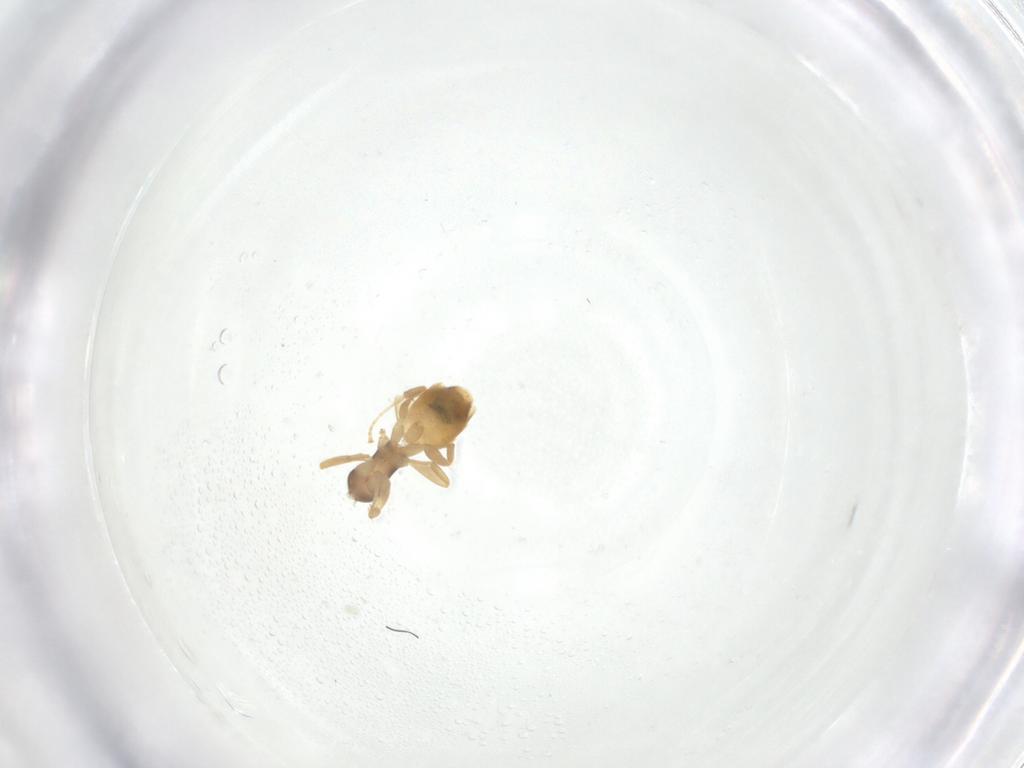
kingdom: Animalia
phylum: Arthropoda
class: Insecta
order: Hymenoptera
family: Formicidae
